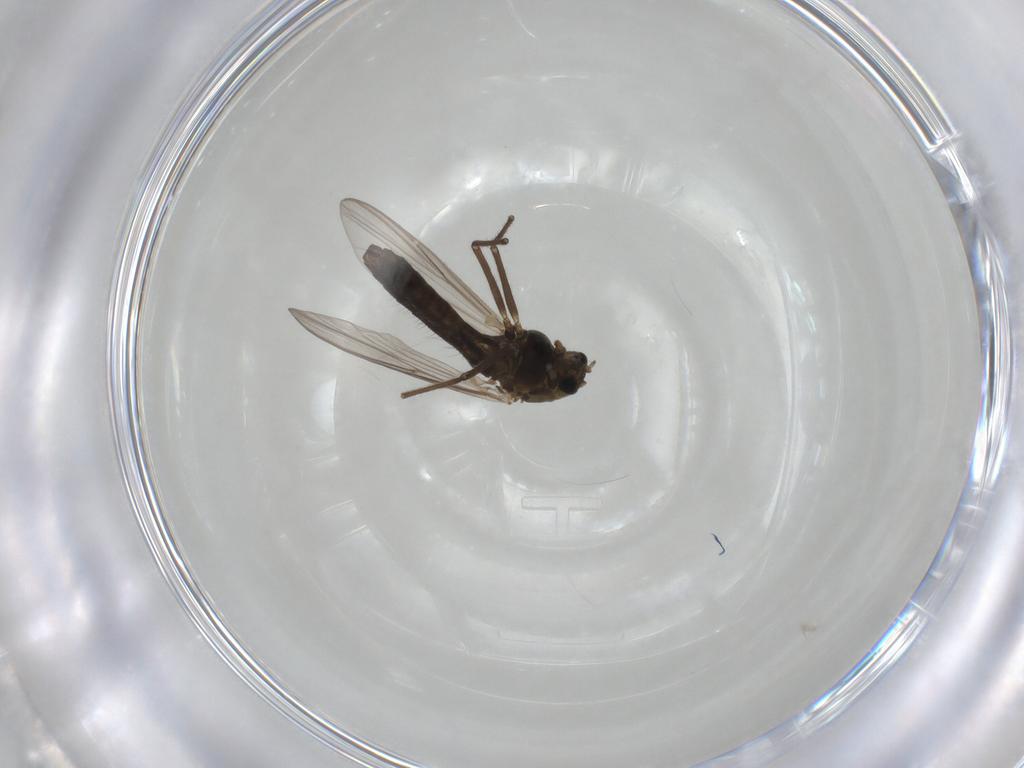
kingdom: Animalia
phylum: Arthropoda
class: Insecta
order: Diptera
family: Chironomidae
